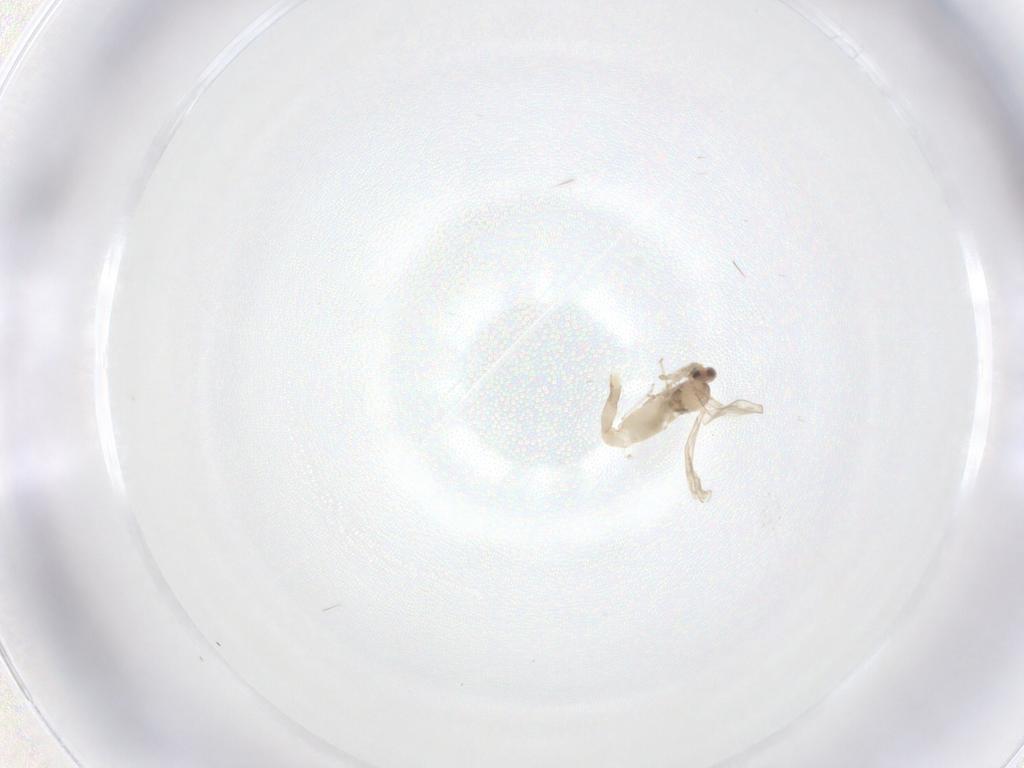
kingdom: Animalia
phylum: Arthropoda
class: Insecta
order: Diptera
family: Cecidomyiidae
